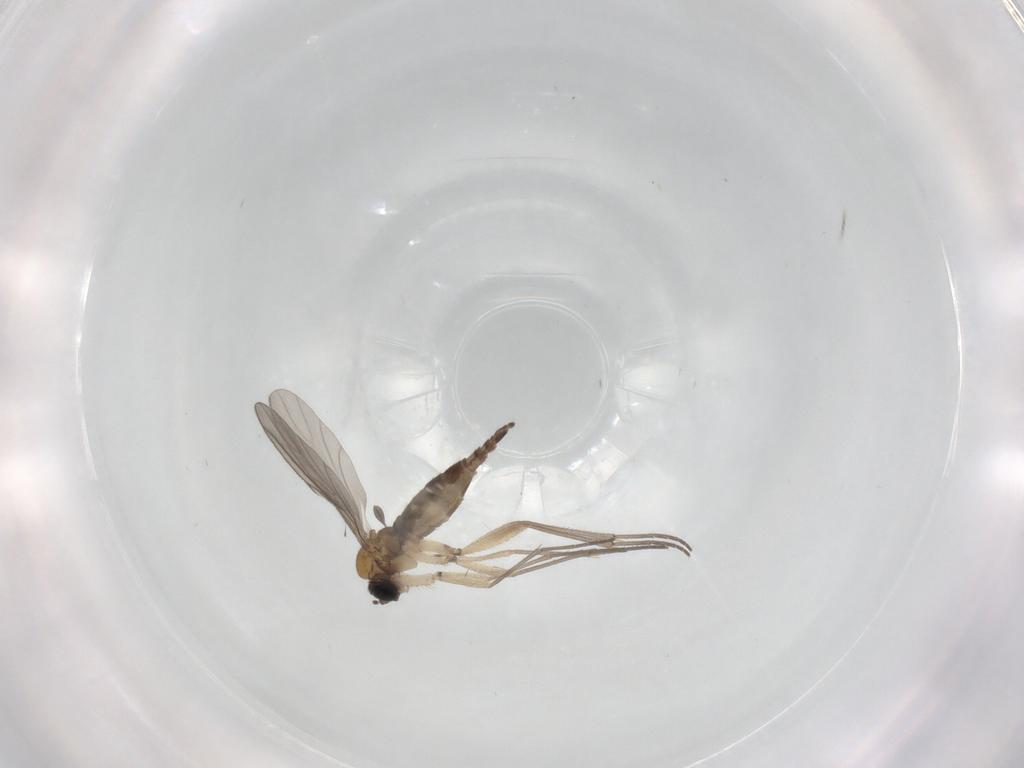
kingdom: Animalia
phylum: Arthropoda
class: Insecta
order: Diptera
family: Sciaridae
